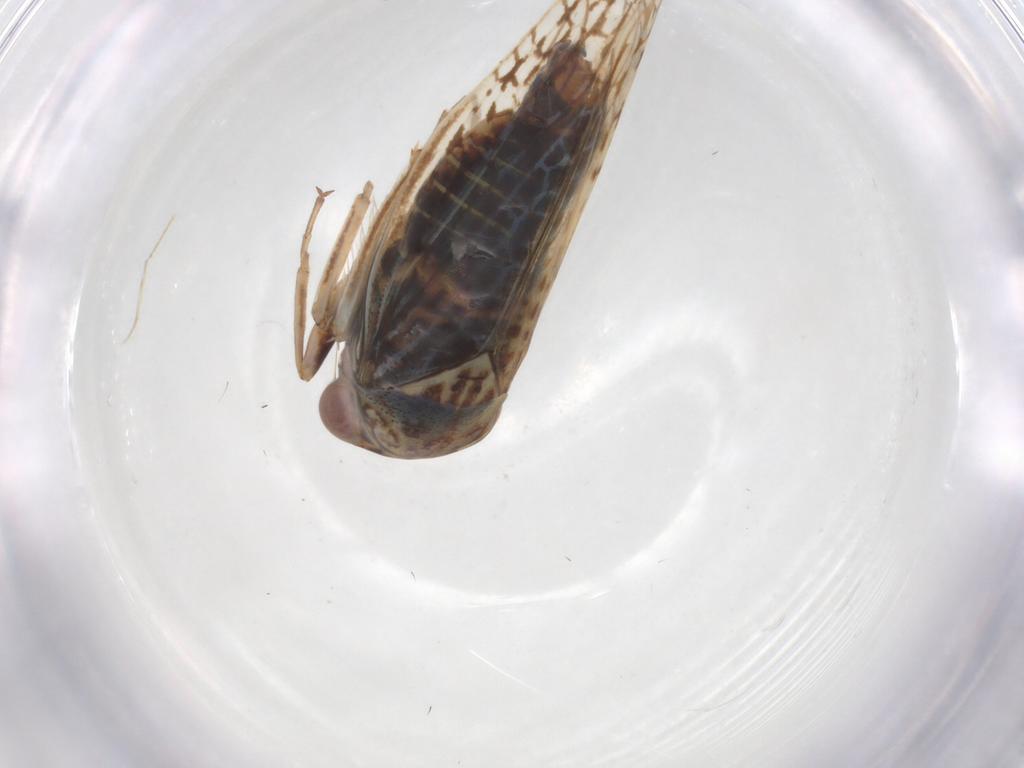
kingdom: Animalia
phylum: Arthropoda
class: Insecta
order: Hemiptera
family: Cicadellidae
